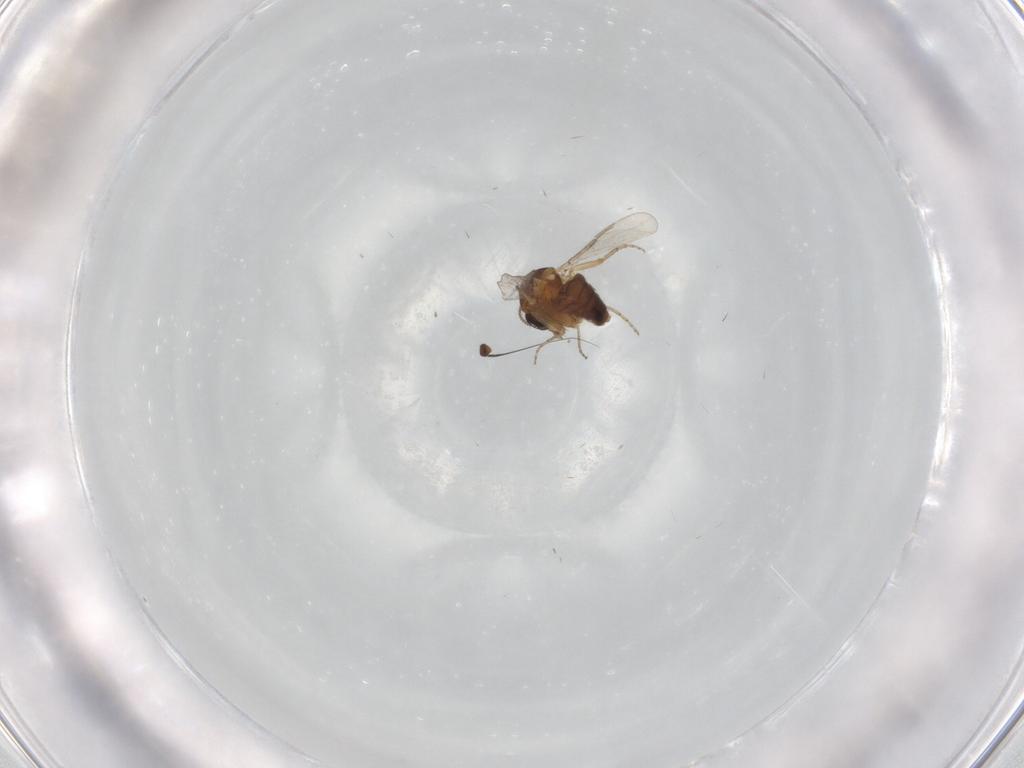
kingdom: Animalia
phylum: Arthropoda
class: Insecta
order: Diptera
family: Ceratopogonidae
